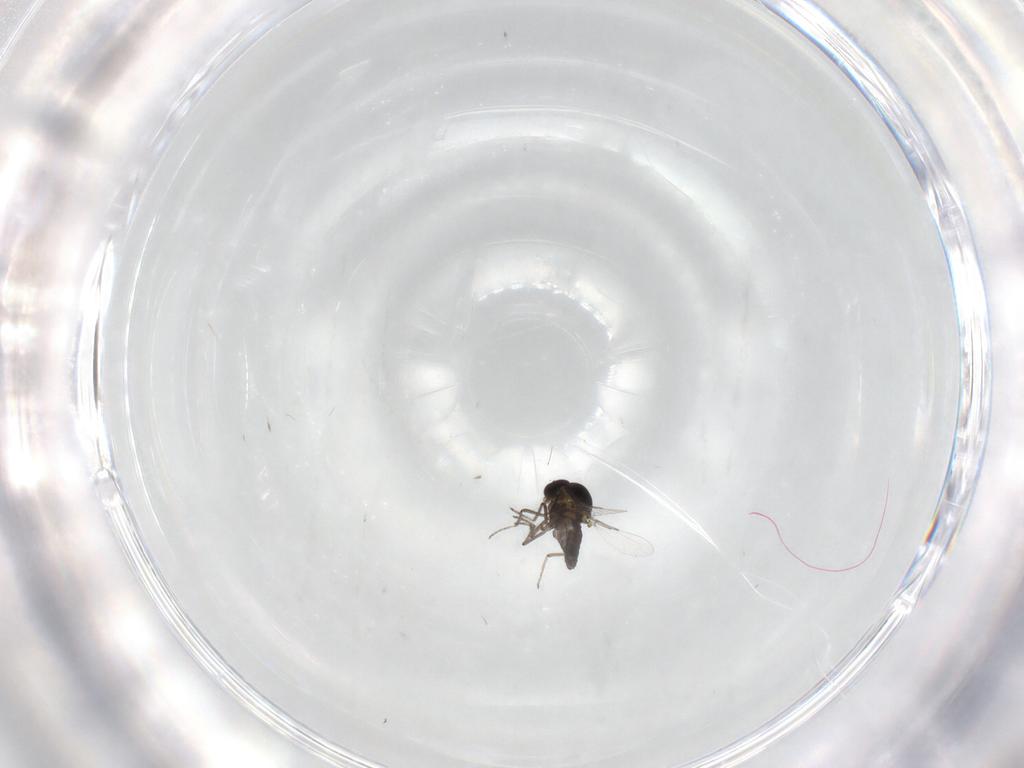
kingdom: Animalia
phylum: Arthropoda
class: Insecta
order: Diptera
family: Ceratopogonidae
